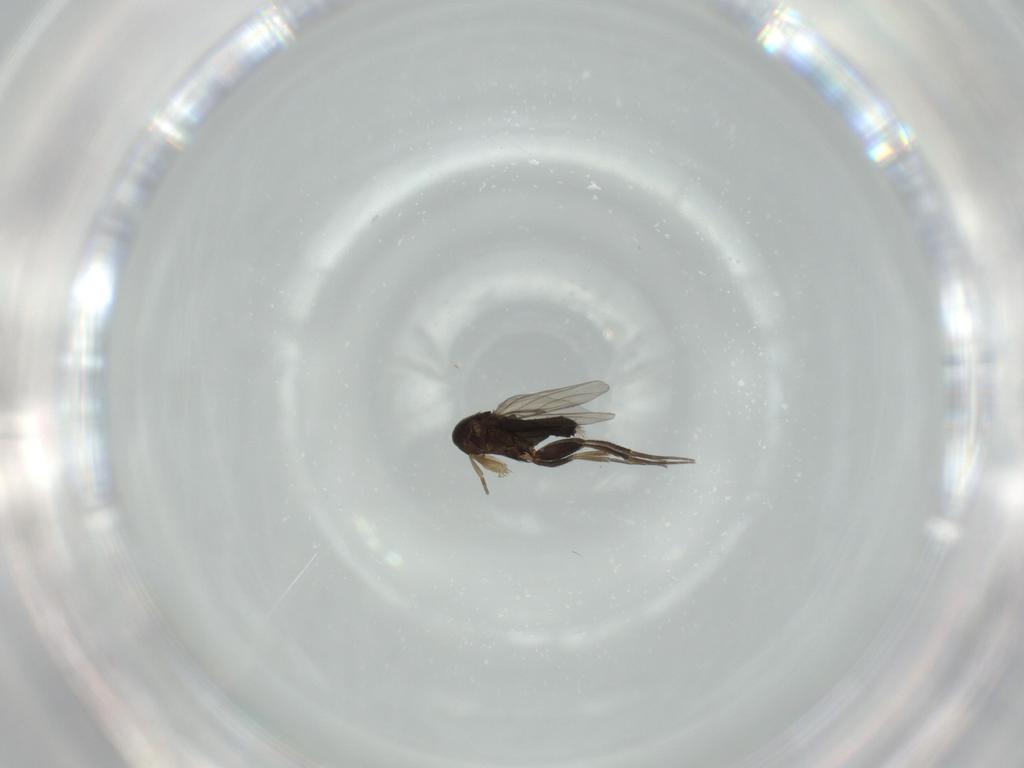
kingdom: Animalia
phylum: Arthropoda
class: Insecta
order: Diptera
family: Phoridae
